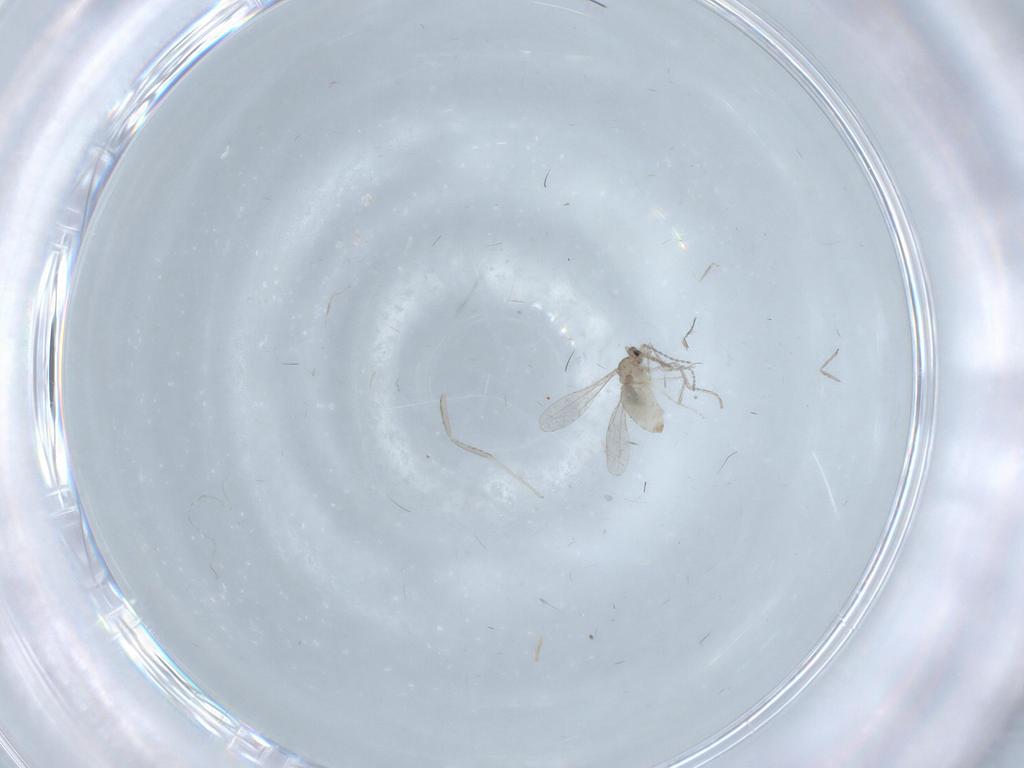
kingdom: Animalia
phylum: Arthropoda
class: Insecta
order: Diptera
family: Cecidomyiidae
